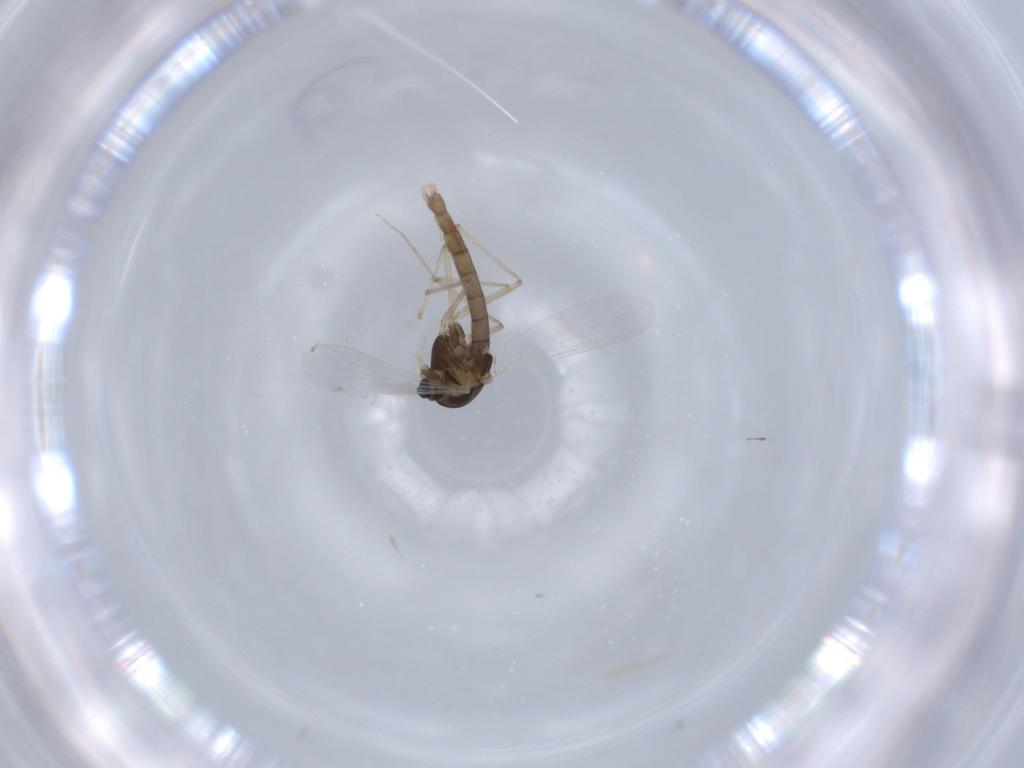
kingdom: Animalia
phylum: Arthropoda
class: Insecta
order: Diptera
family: Chironomidae
